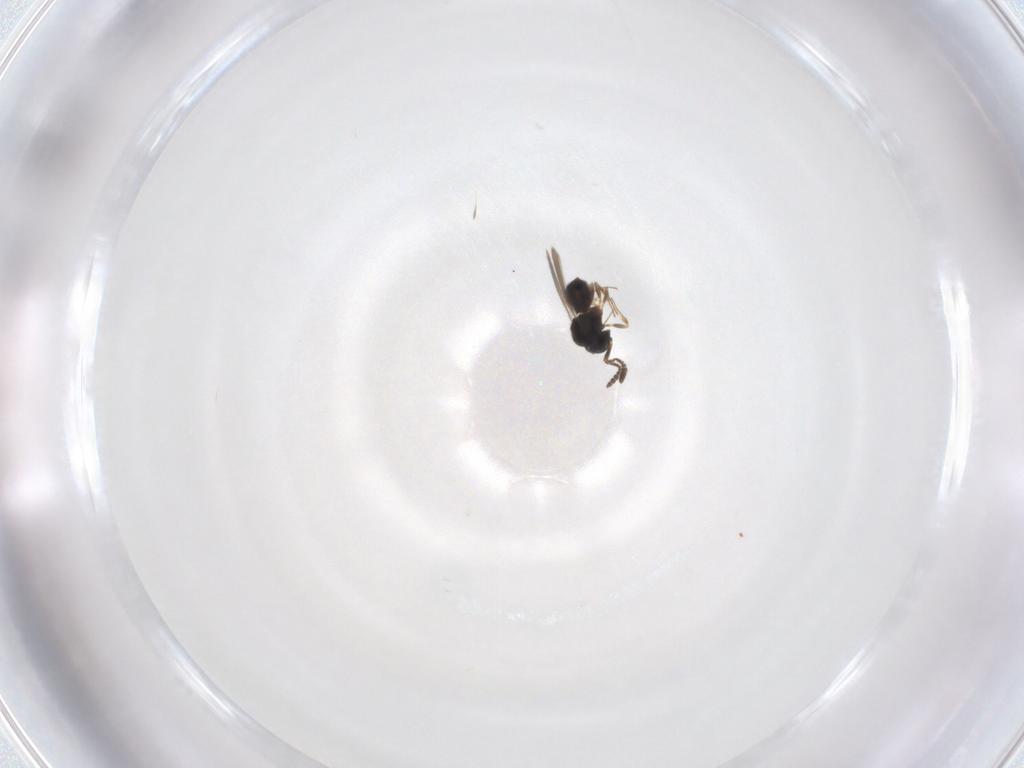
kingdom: Animalia
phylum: Arthropoda
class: Insecta
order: Hymenoptera
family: Scelionidae
